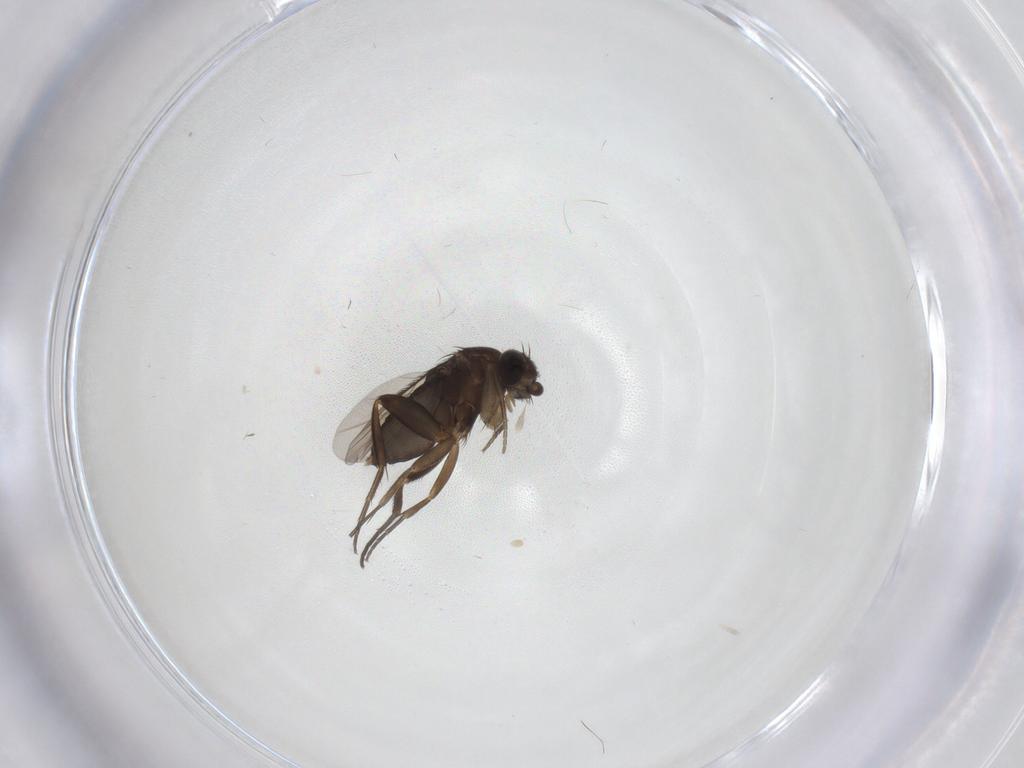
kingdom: Animalia
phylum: Arthropoda
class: Insecta
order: Diptera
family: Phoridae
